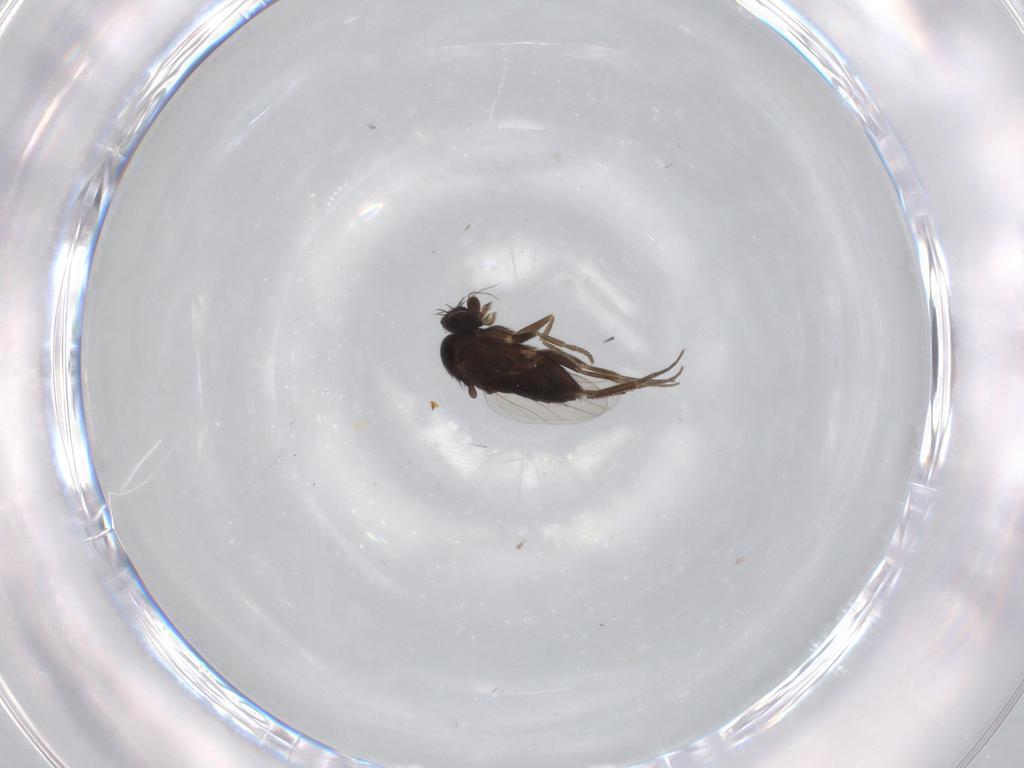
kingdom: Animalia
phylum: Arthropoda
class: Insecta
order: Diptera
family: Phoridae
